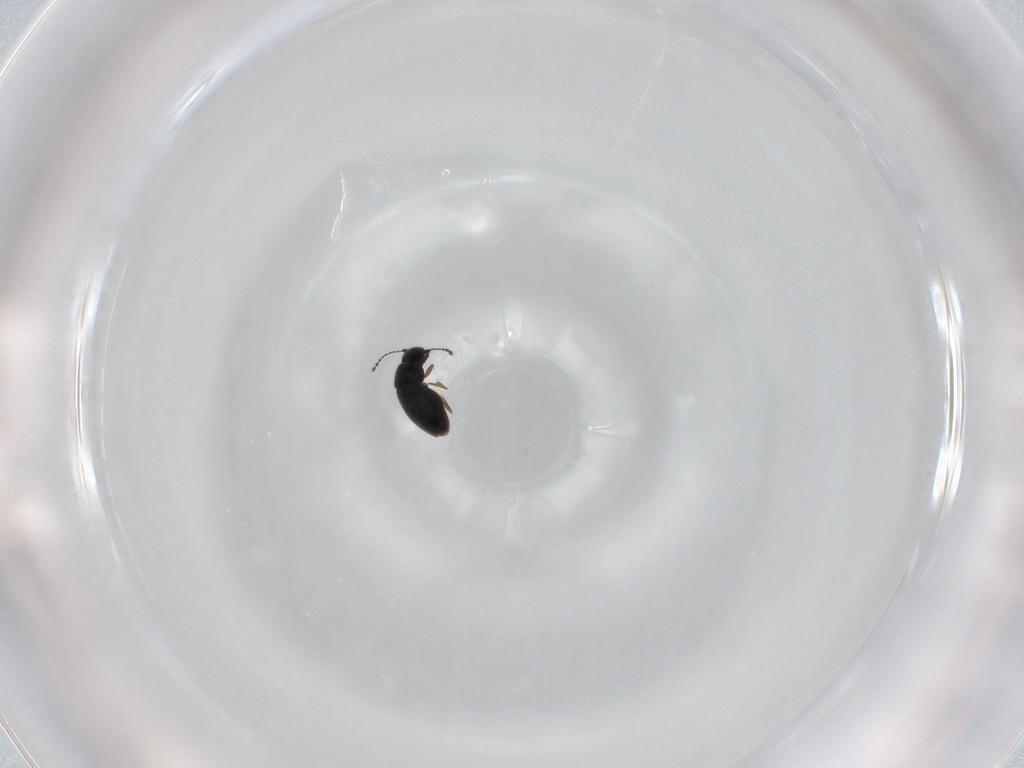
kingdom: Animalia
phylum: Arthropoda
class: Insecta
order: Coleoptera
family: Ptiliidae
